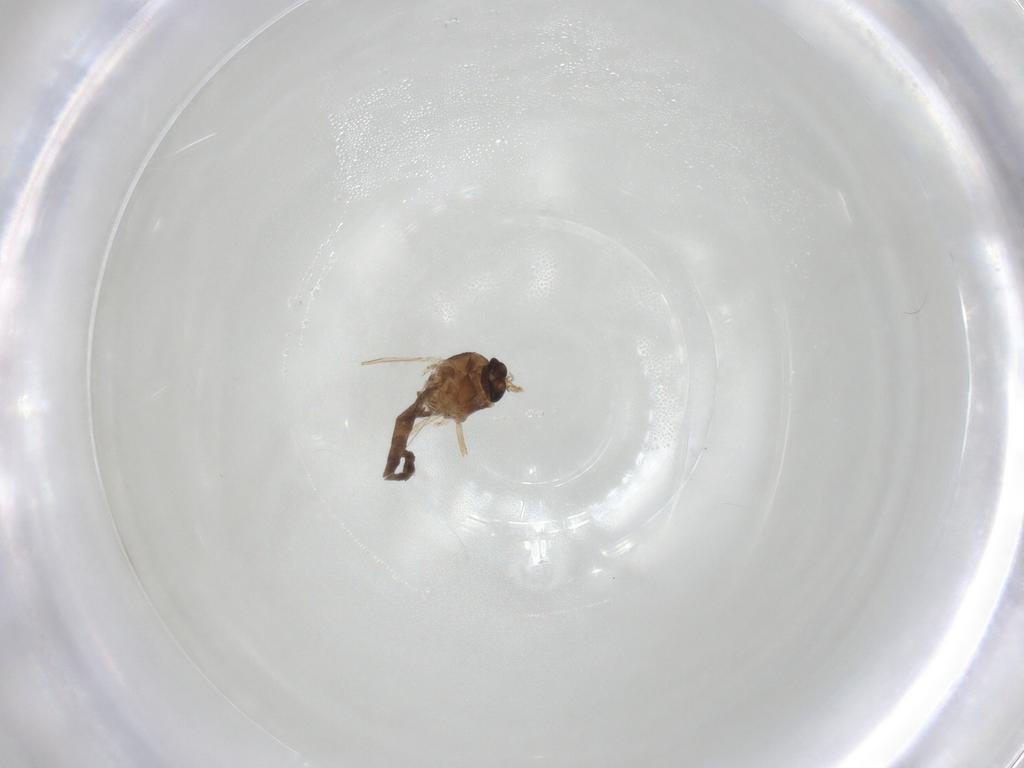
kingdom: Animalia
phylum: Arthropoda
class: Insecta
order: Diptera
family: Ceratopogonidae
